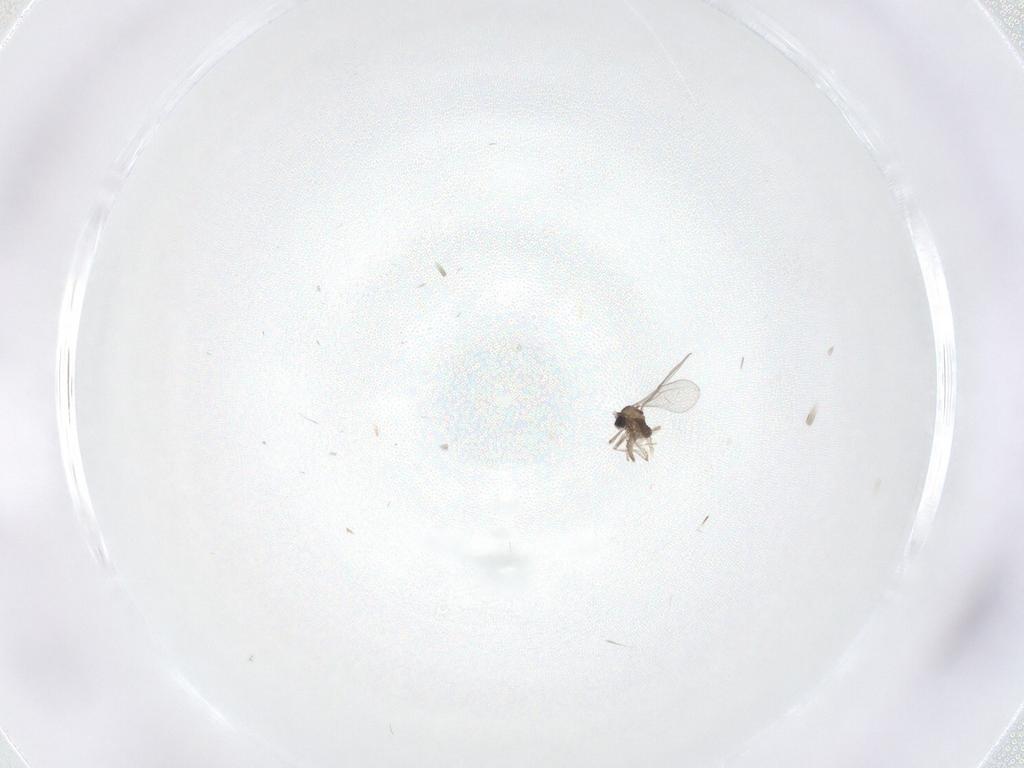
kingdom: Animalia
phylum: Arthropoda
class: Insecta
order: Diptera
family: Cecidomyiidae
